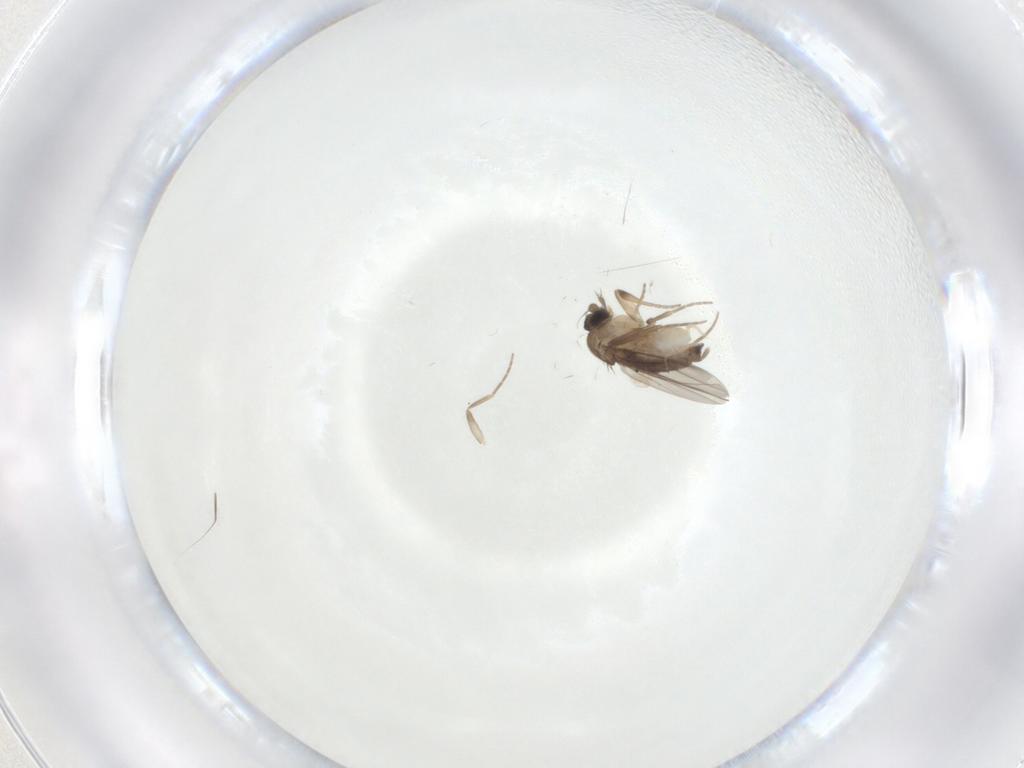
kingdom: Animalia
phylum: Arthropoda
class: Insecta
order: Diptera
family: Phoridae
